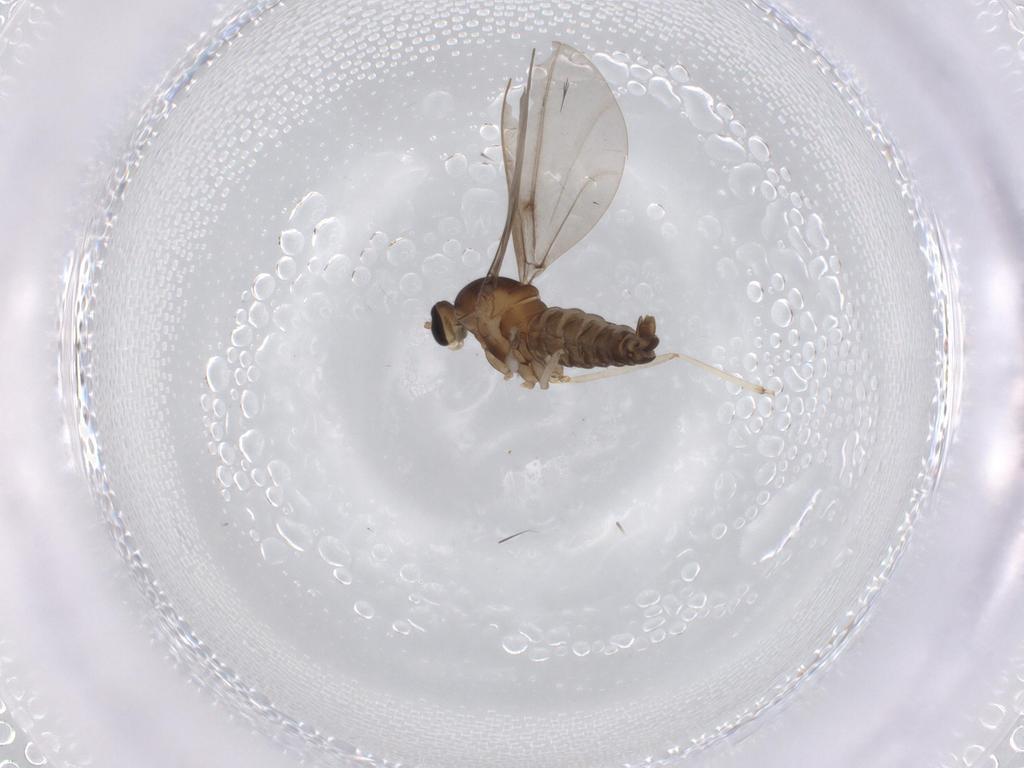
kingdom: Animalia
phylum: Arthropoda
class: Insecta
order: Diptera
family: Cecidomyiidae
